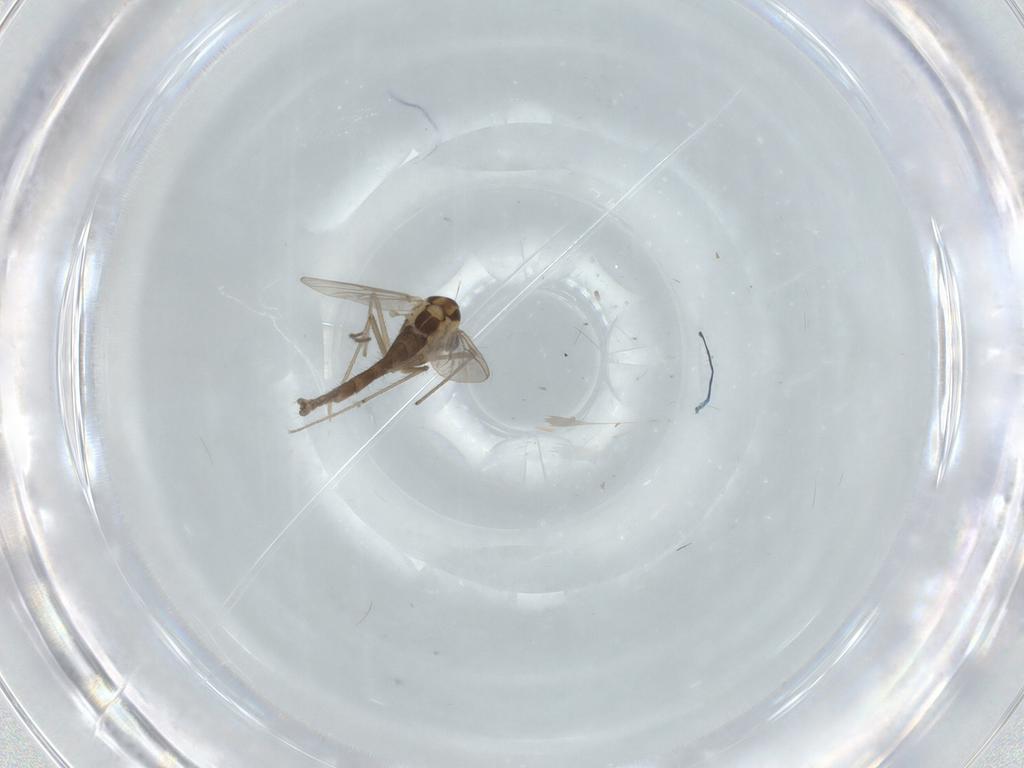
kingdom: Animalia
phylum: Arthropoda
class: Insecta
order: Diptera
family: Chironomidae
